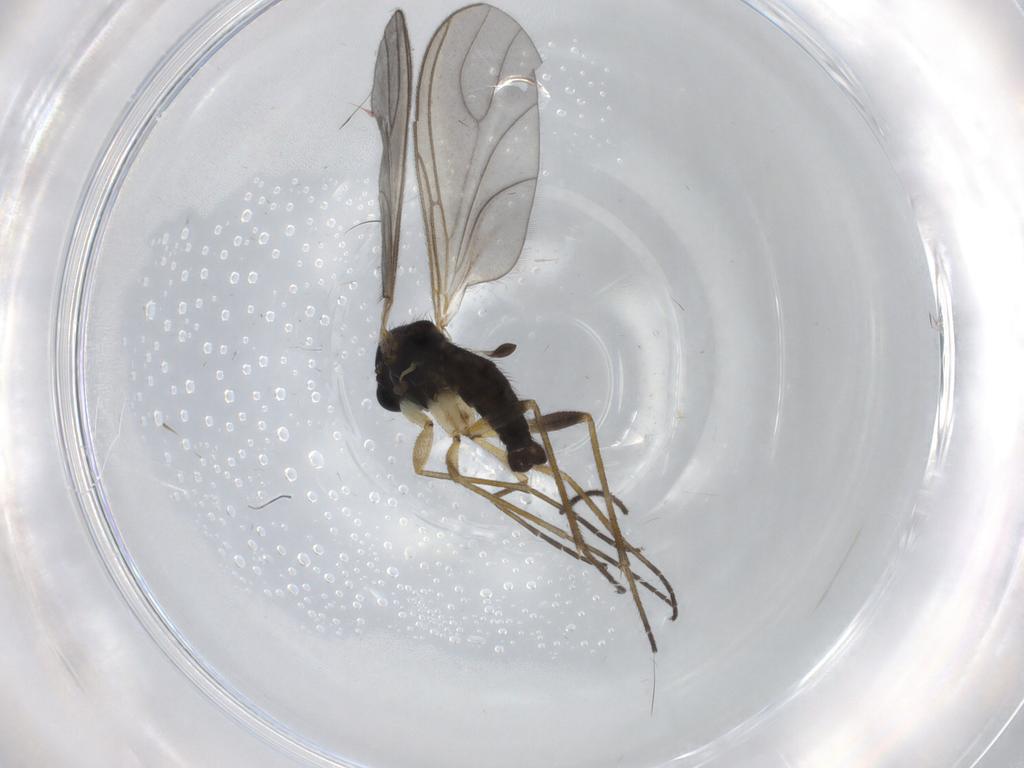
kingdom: Animalia
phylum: Arthropoda
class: Insecta
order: Diptera
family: Sciaridae
